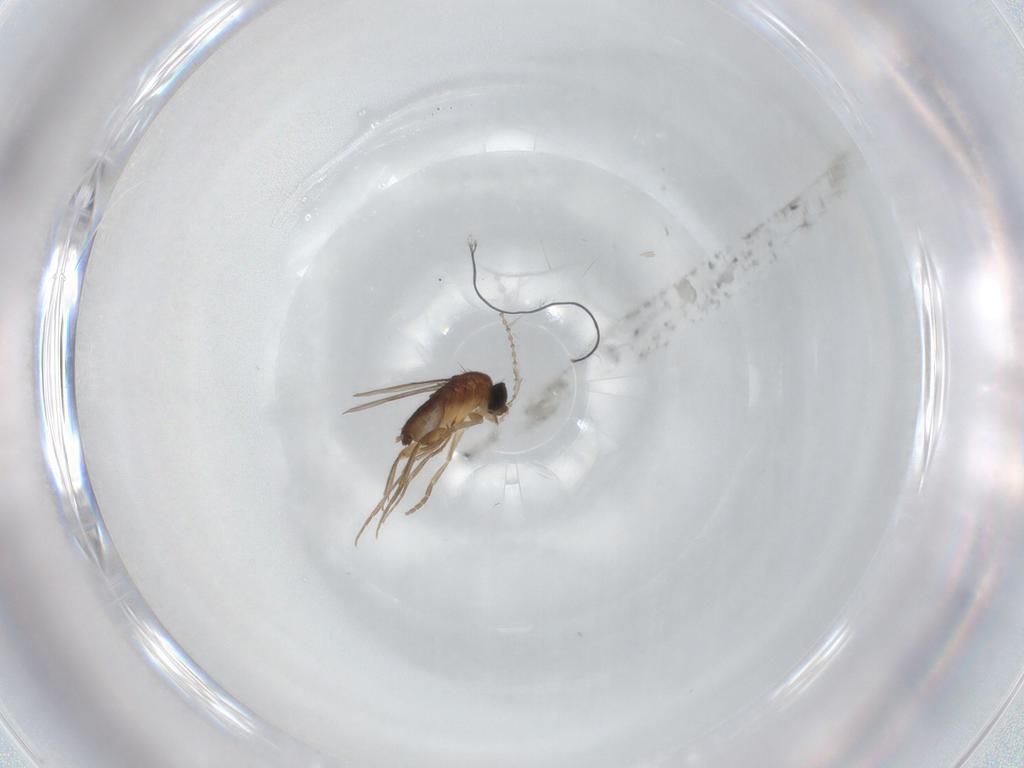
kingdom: Animalia
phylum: Arthropoda
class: Insecta
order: Diptera
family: Phoridae
